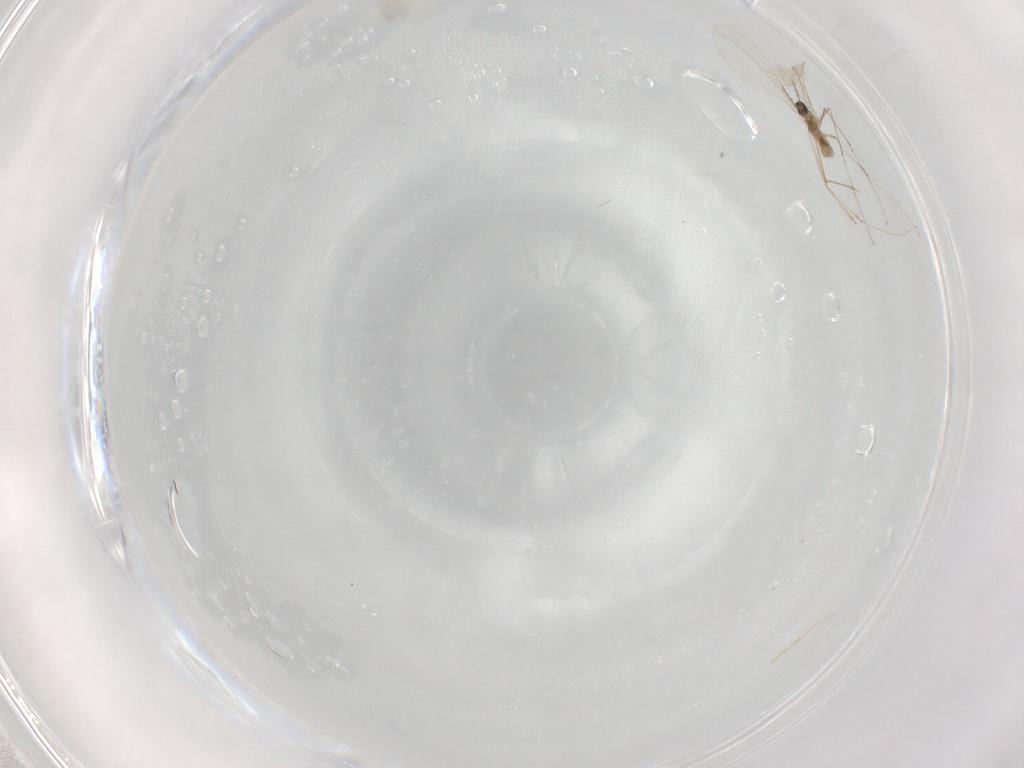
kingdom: Animalia
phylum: Arthropoda
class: Insecta
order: Diptera
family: Cecidomyiidae
